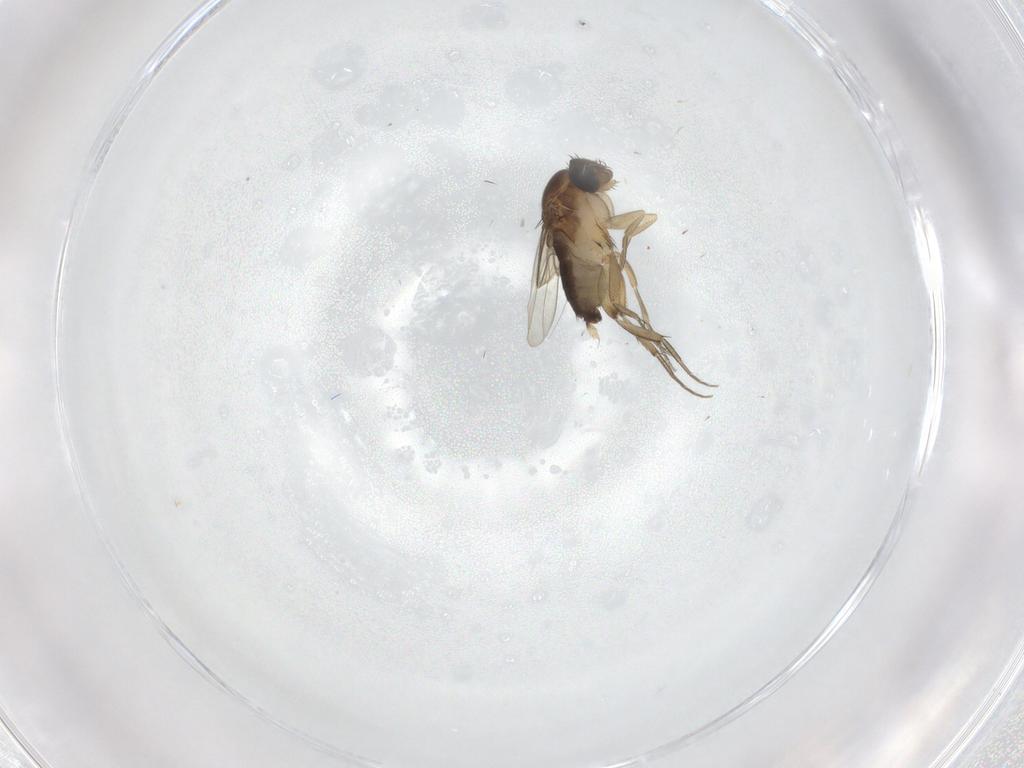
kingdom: Animalia
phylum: Arthropoda
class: Insecta
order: Diptera
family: Phoridae
